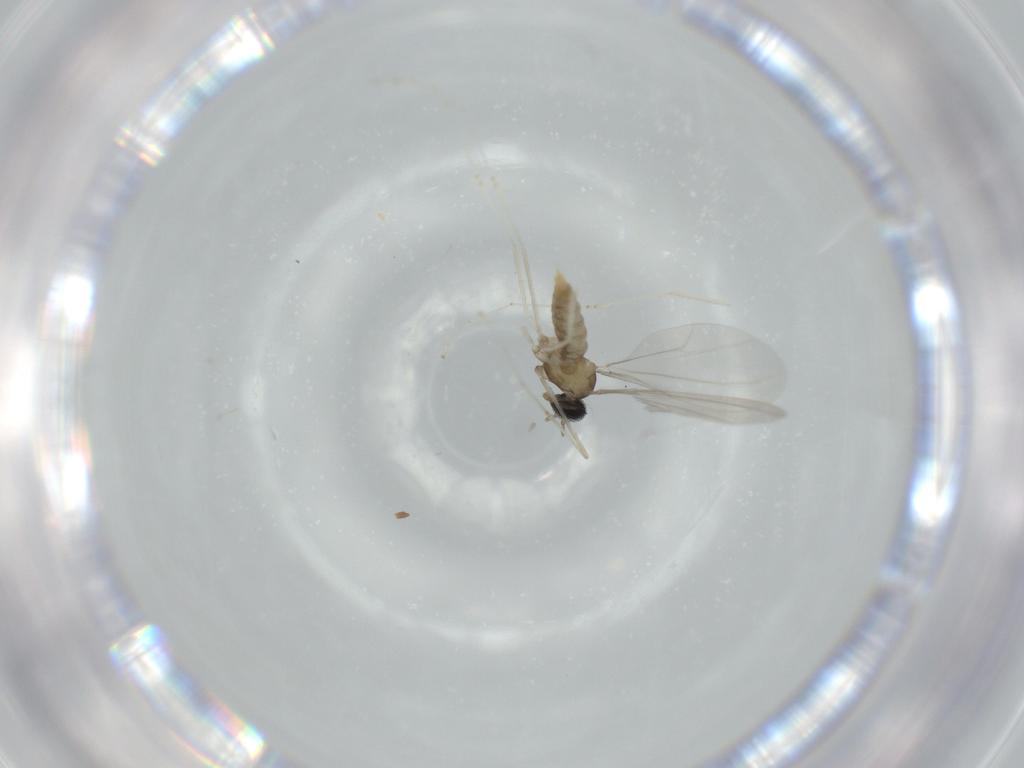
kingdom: Animalia
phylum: Arthropoda
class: Insecta
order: Diptera
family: Cecidomyiidae
